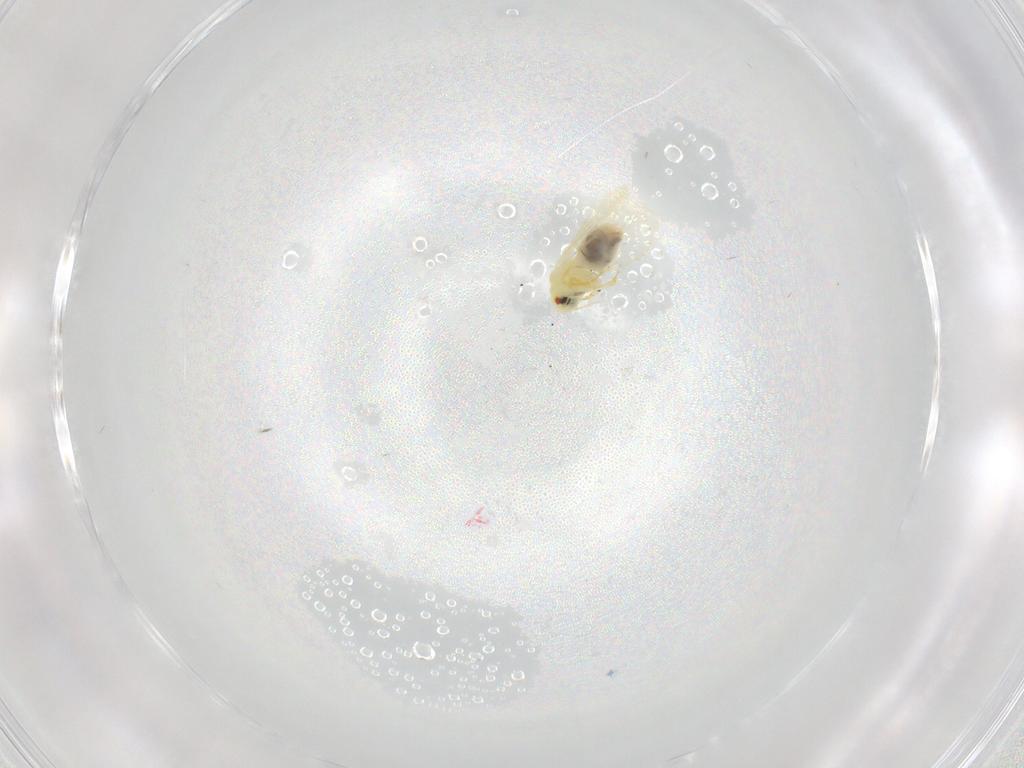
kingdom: Animalia
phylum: Arthropoda
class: Insecta
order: Hemiptera
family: Aleyrodidae
